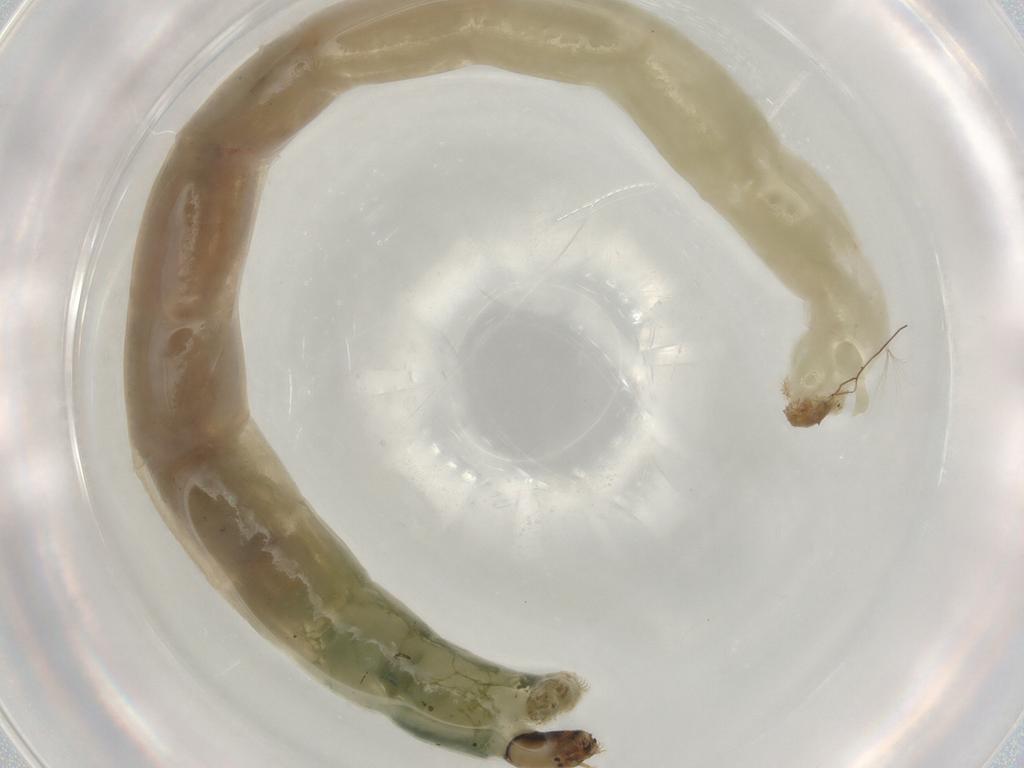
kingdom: Animalia
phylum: Arthropoda
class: Insecta
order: Diptera
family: Chironomidae
